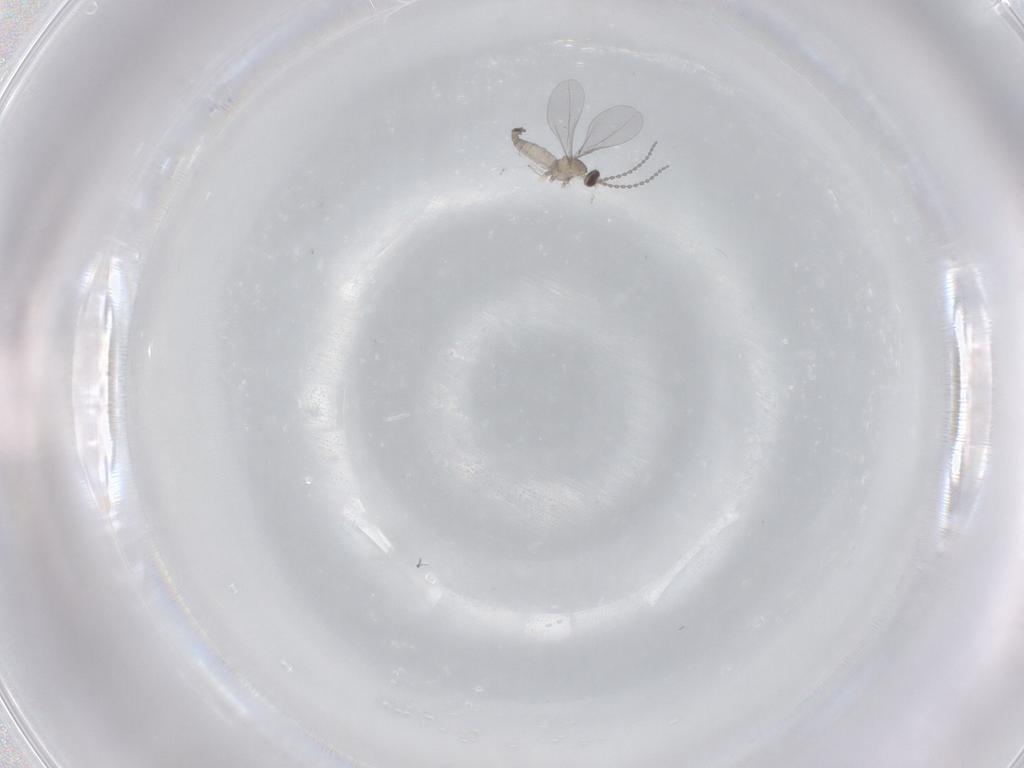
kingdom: Animalia
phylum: Arthropoda
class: Insecta
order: Diptera
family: Cecidomyiidae
